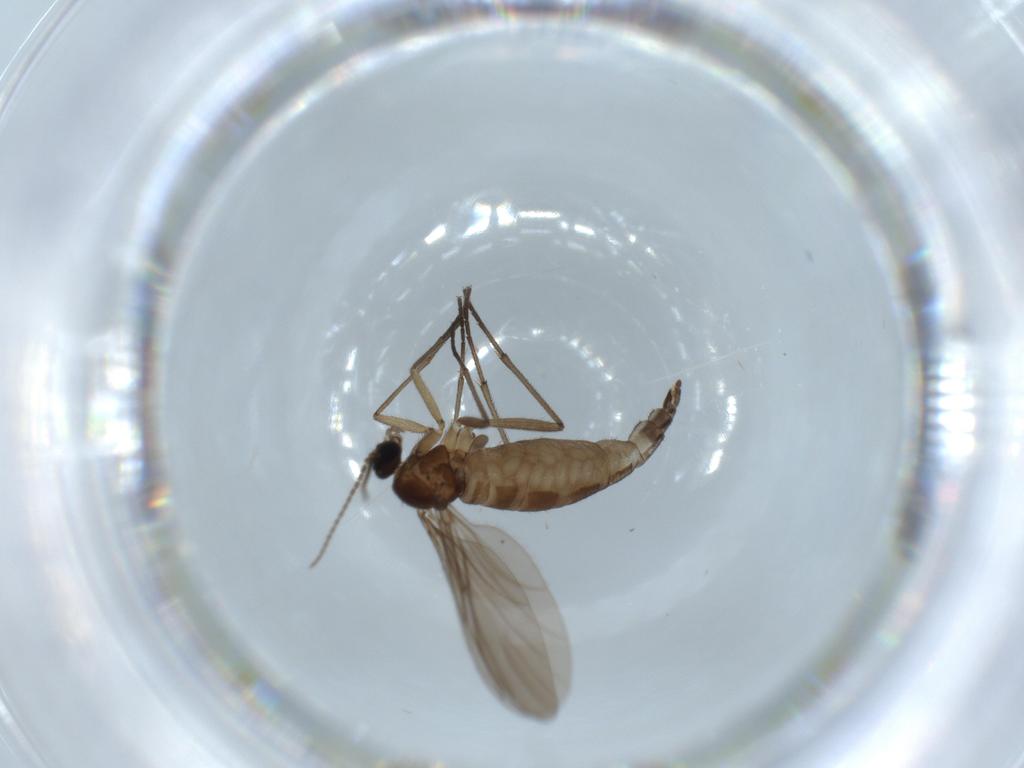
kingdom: Animalia
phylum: Arthropoda
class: Insecta
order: Diptera
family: Sciaridae
